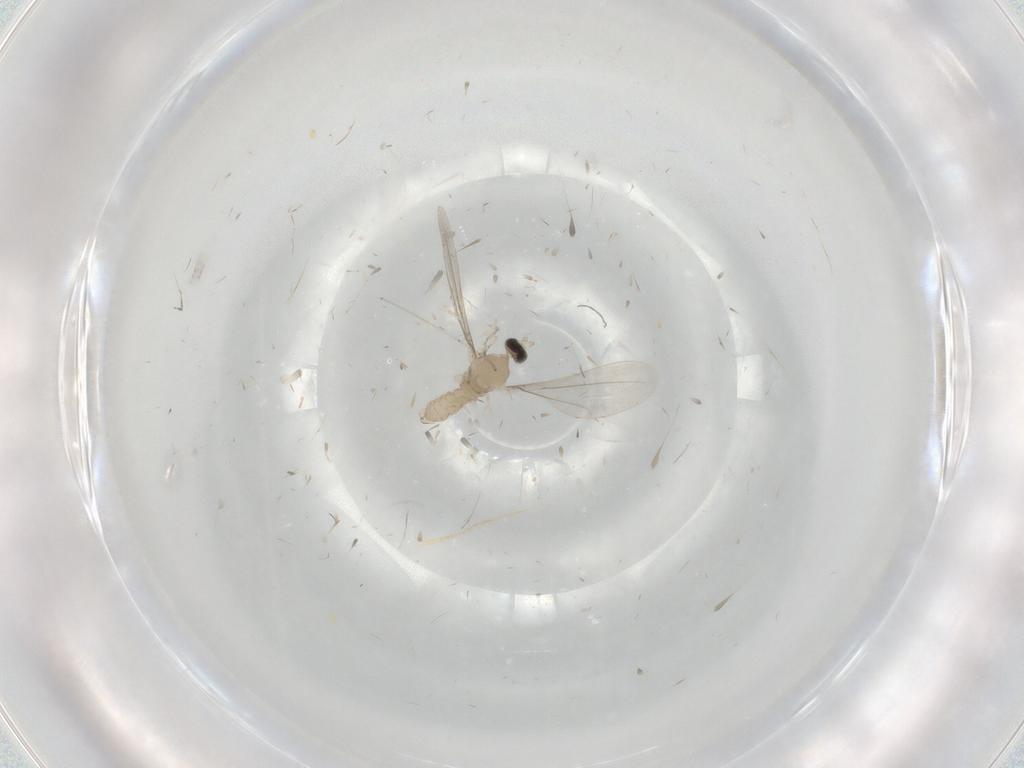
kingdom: Animalia
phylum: Arthropoda
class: Insecta
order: Diptera
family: Cecidomyiidae
